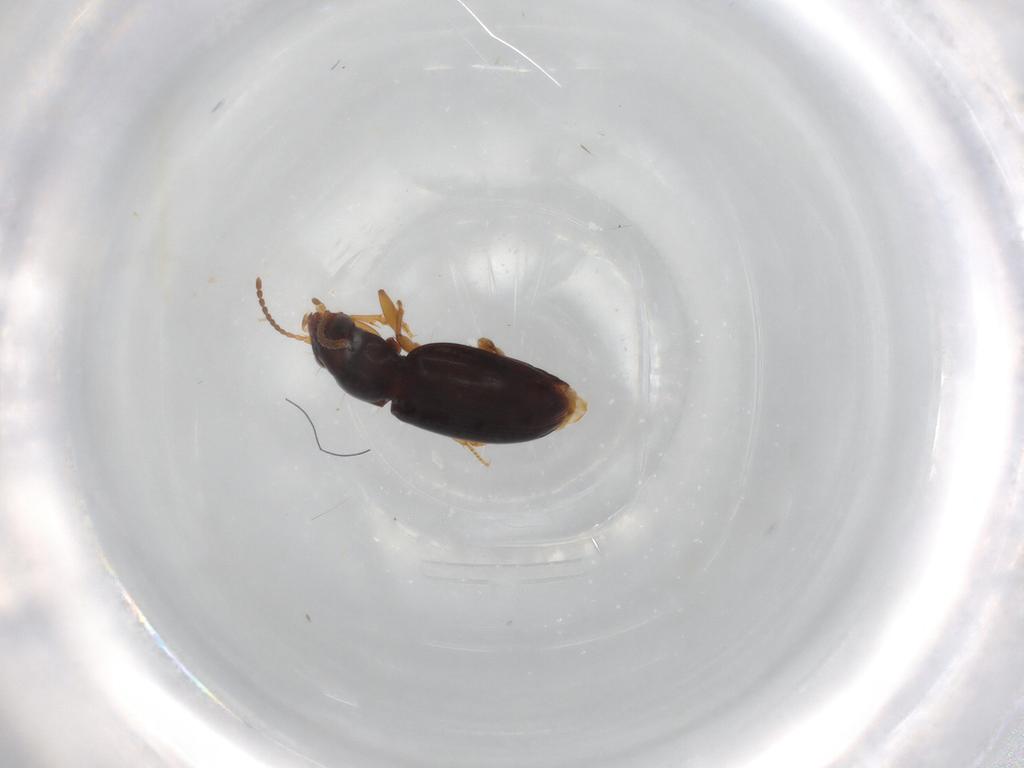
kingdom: Animalia
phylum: Arthropoda
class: Insecta
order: Coleoptera
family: Carabidae
